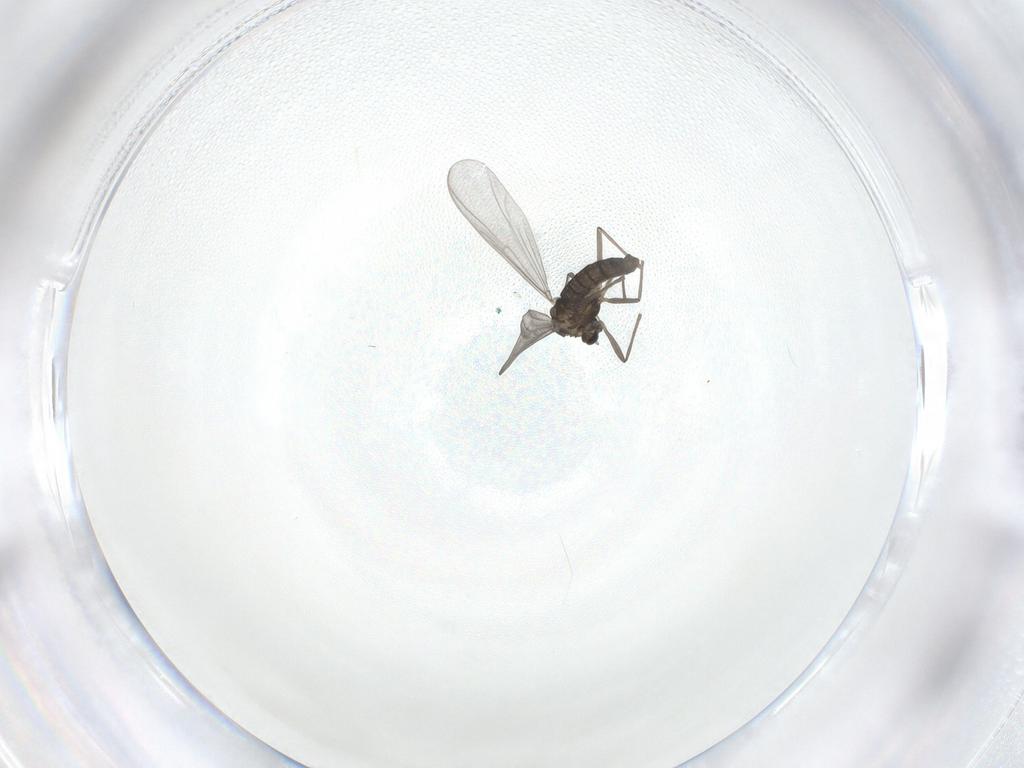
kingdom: Animalia
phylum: Arthropoda
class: Insecta
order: Diptera
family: Chironomidae
